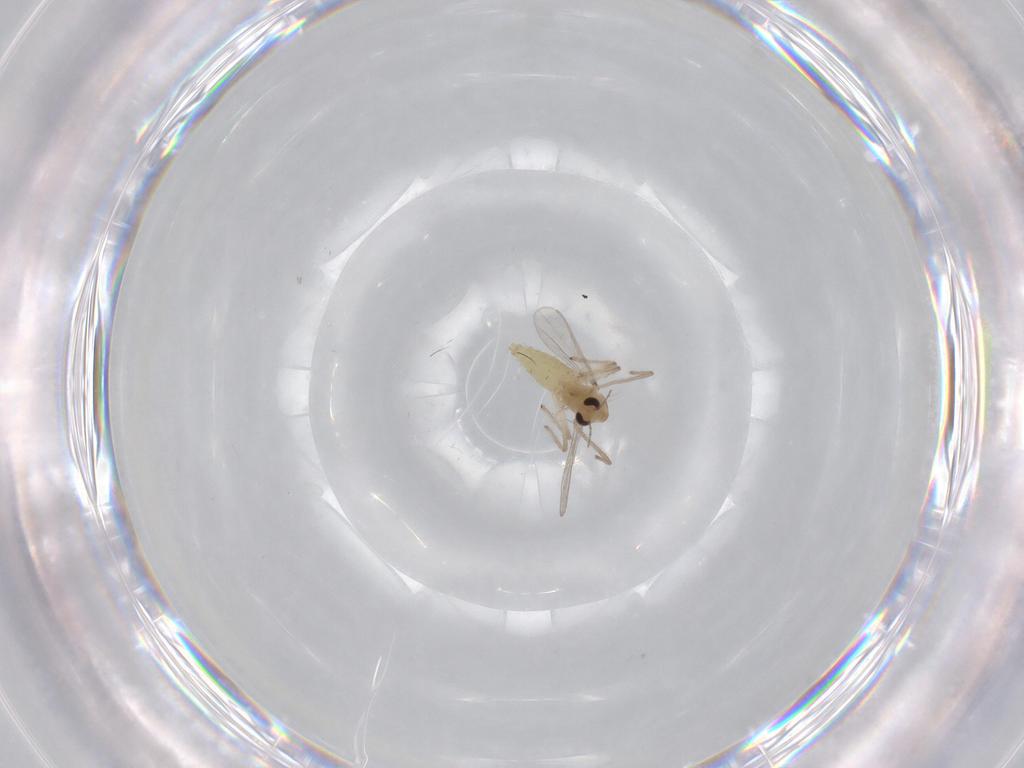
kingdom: Animalia
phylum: Arthropoda
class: Insecta
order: Diptera
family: Chironomidae
